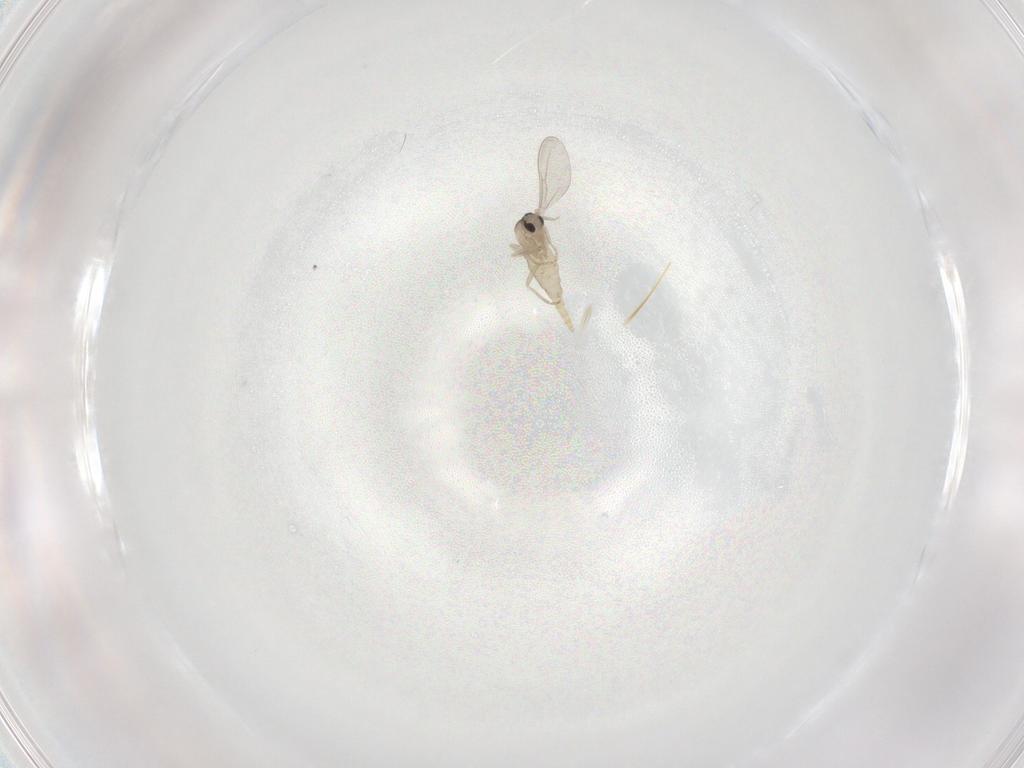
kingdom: Animalia
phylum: Arthropoda
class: Insecta
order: Diptera
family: Cecidomyiidae
